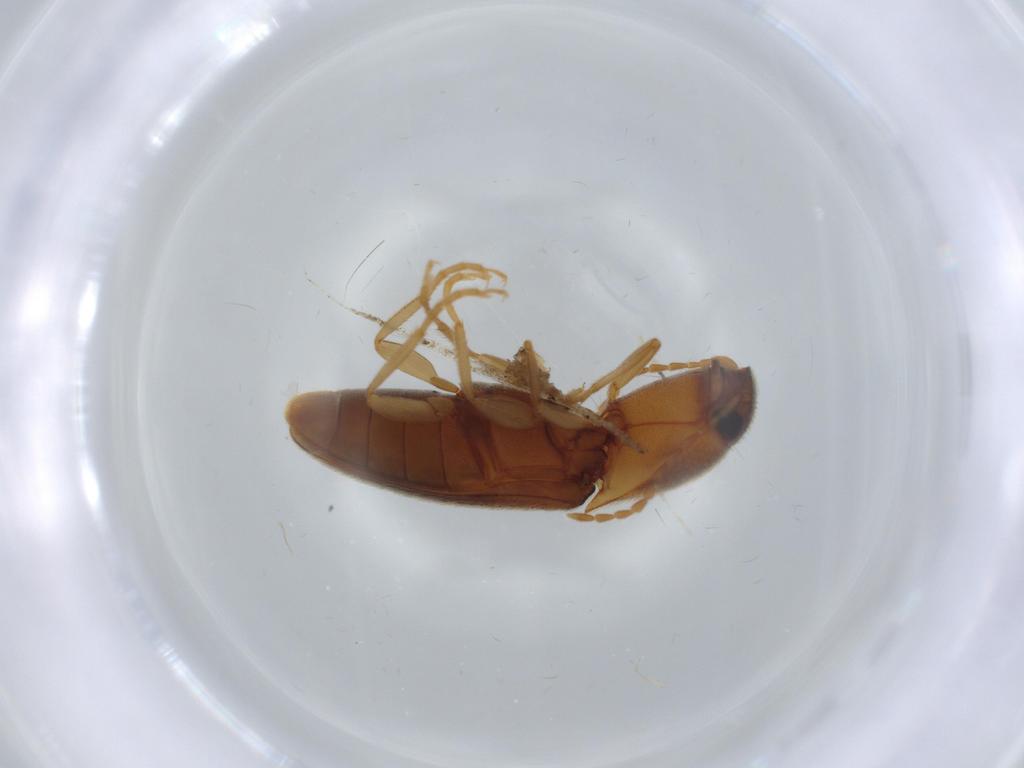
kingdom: Animalia
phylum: Arthropoda
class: Insecta
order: Coleoptera
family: Elateridae
